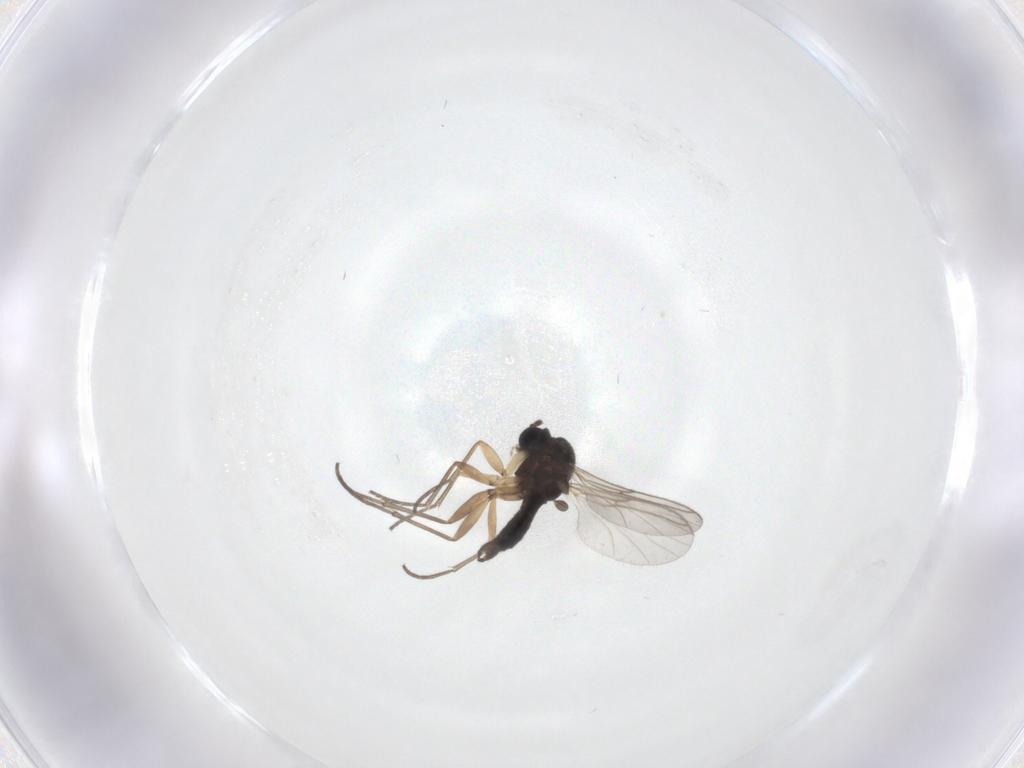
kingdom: Animalia
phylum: Arthropoda
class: Insecta
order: Diptera
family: Sciaridae
